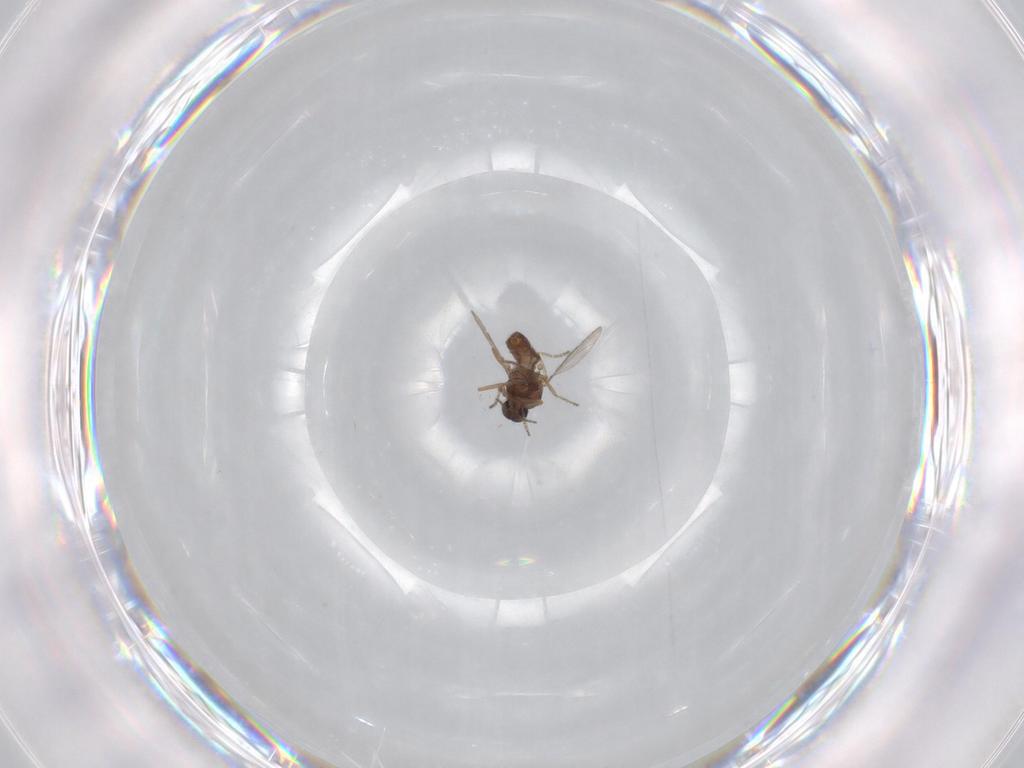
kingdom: Animalia
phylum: Arthropoda
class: Insecta
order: Diptera
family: Ceratopogonidae
